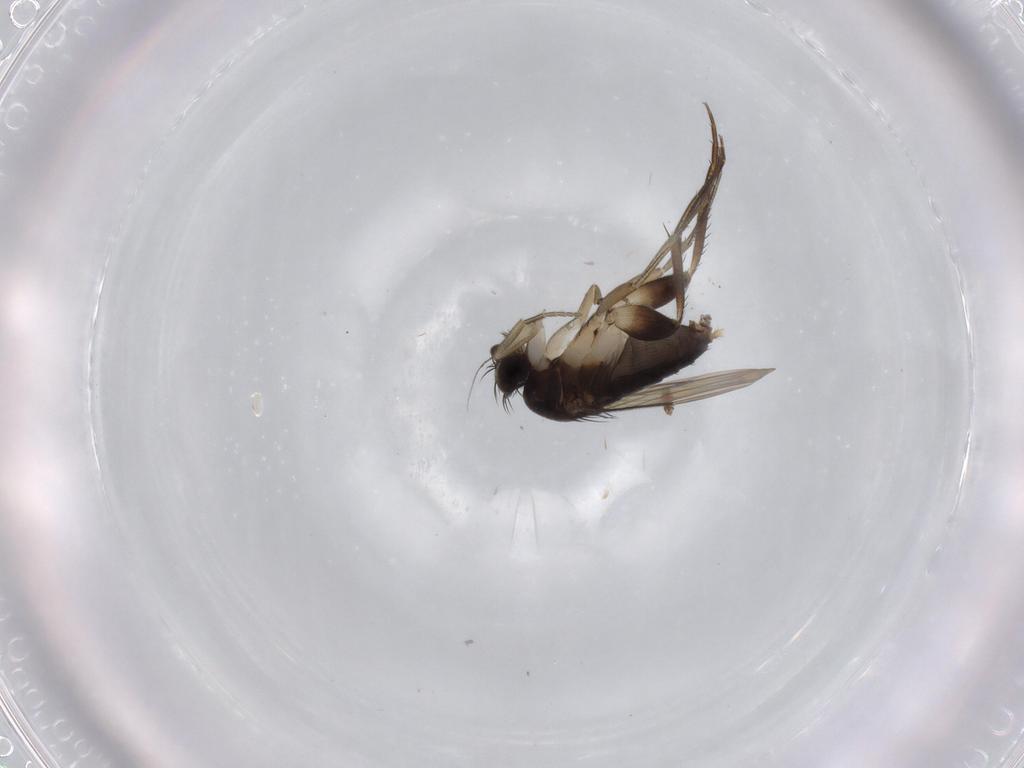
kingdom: Animalia
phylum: Arthropoda
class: Insecta
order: Diptera
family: Phoridae
